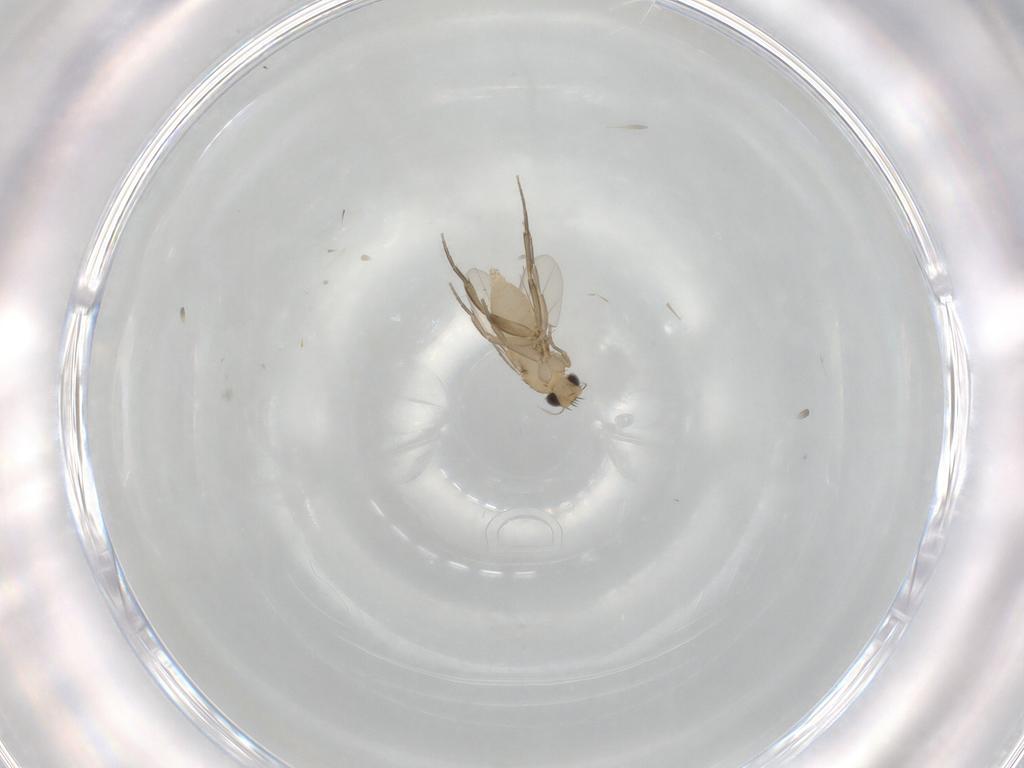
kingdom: Animalia
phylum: Arthropoda
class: Insecta
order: Diptera
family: Phoridae
